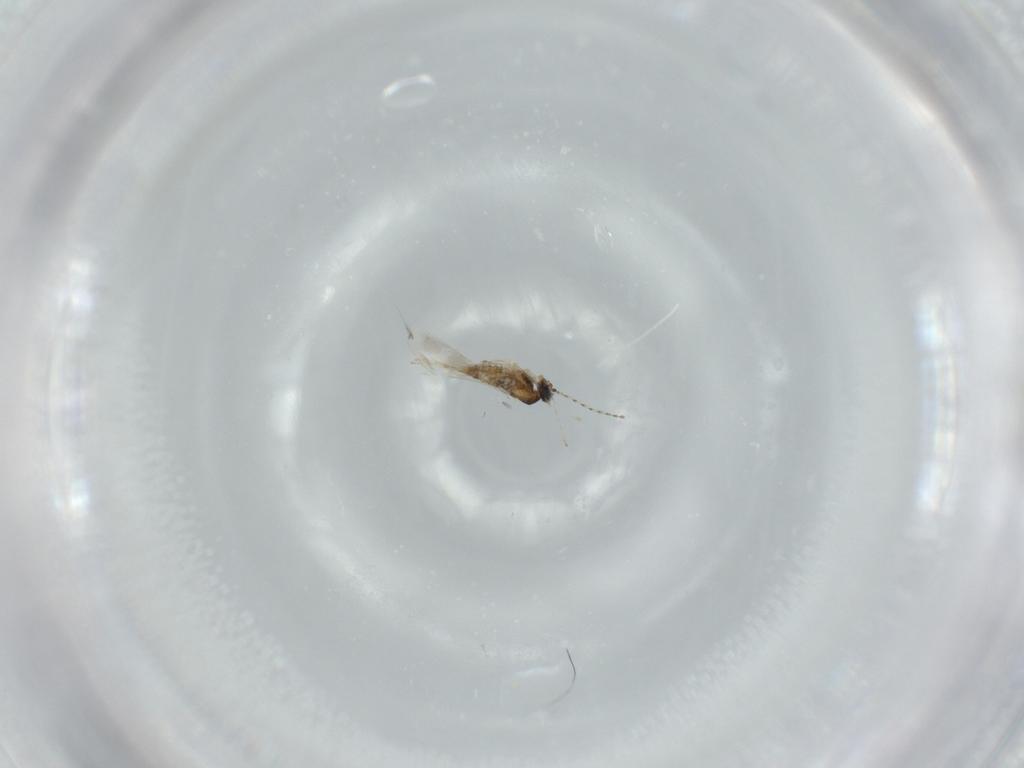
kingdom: Animalia
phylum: Arthropoda
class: Insecta
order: Diptera
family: Cecidomyiidae
